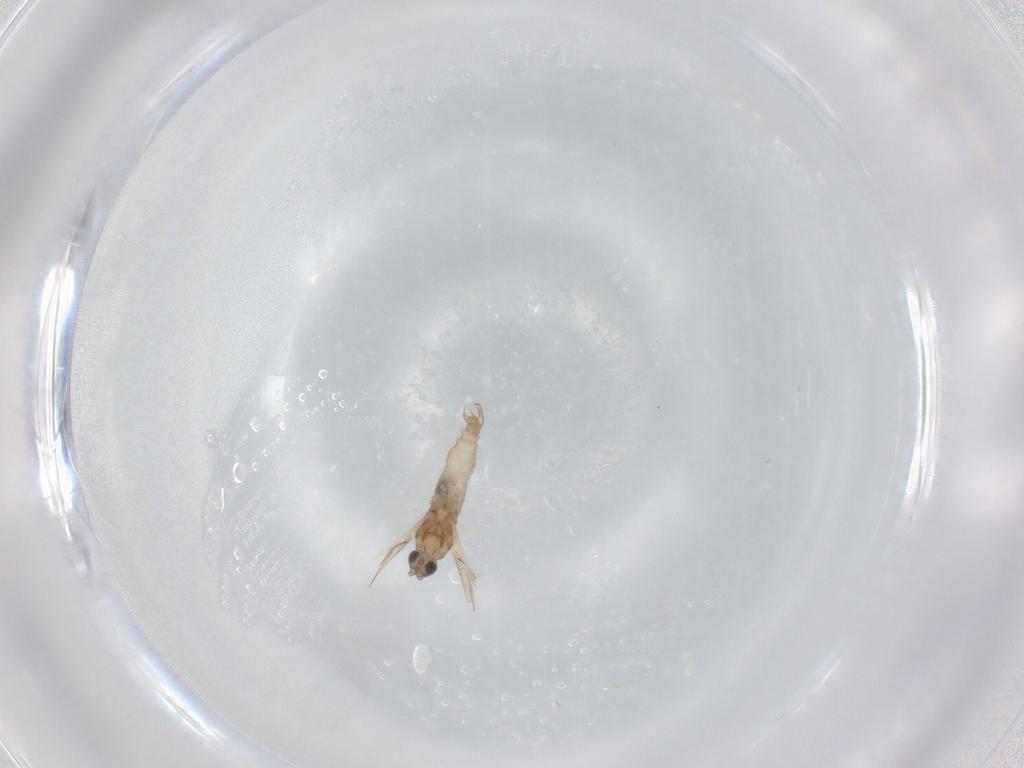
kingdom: Animalia
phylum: Arthropoda
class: Insecta
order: Diptera
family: Cecidomyiidae
